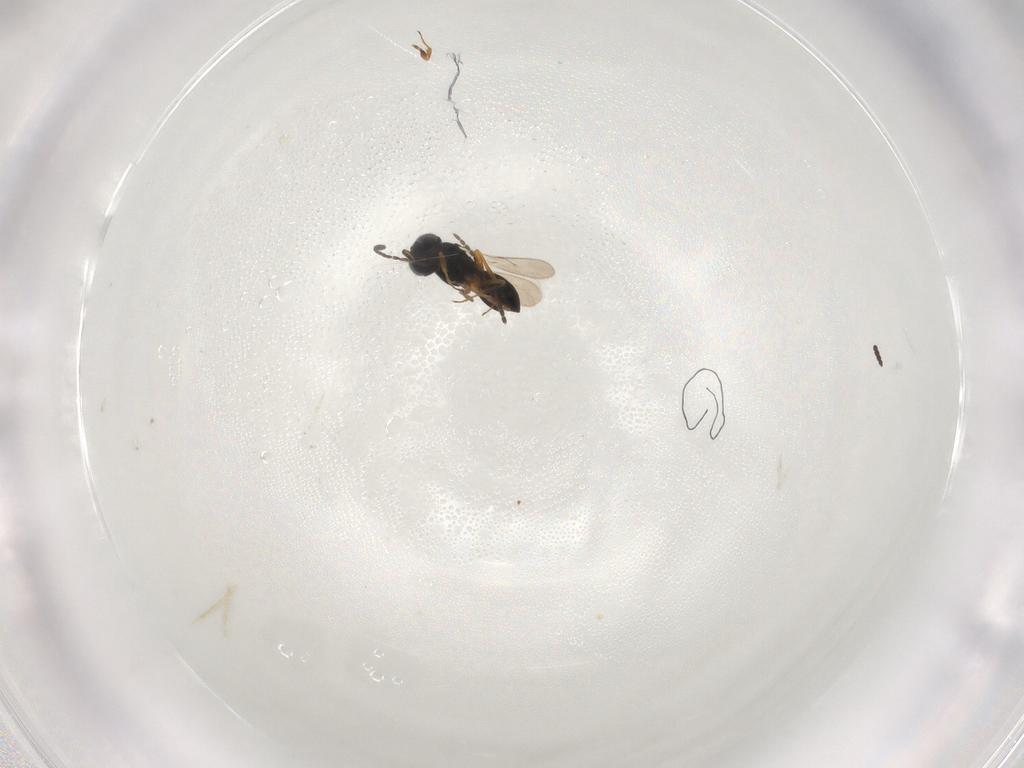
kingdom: Animalia
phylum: Arthropoda
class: Insecta
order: Hymenoptera
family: Scelionidae
